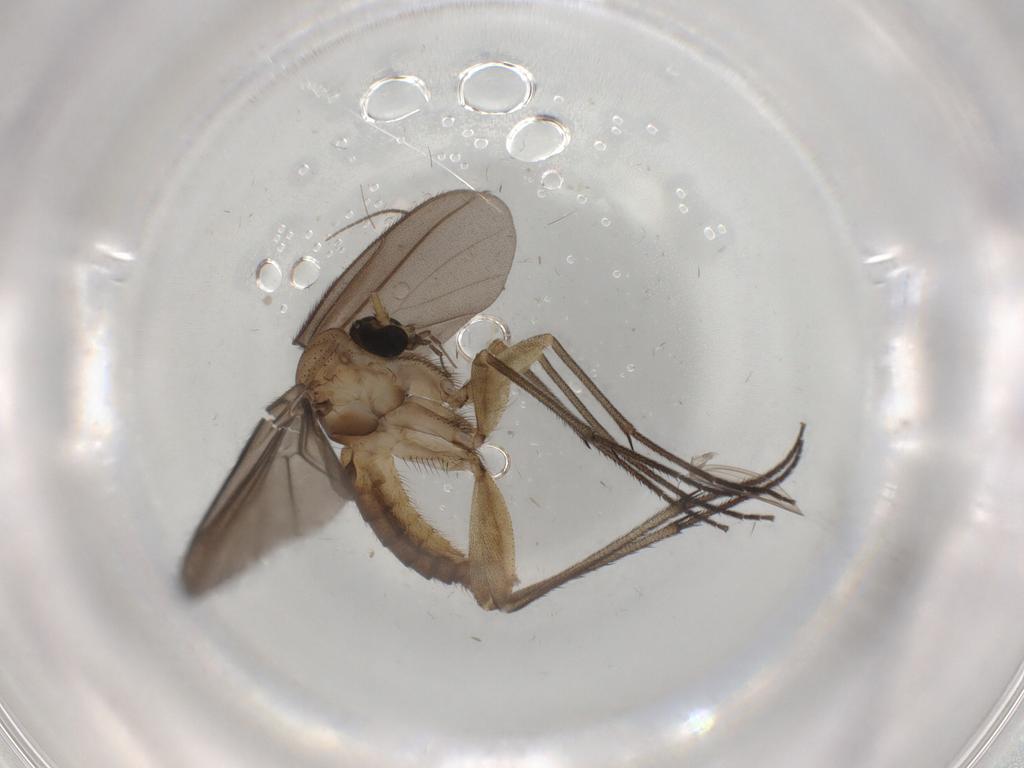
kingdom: Animalia
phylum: Arthropoda
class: Insecta
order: Diptera
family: Sciaridae
